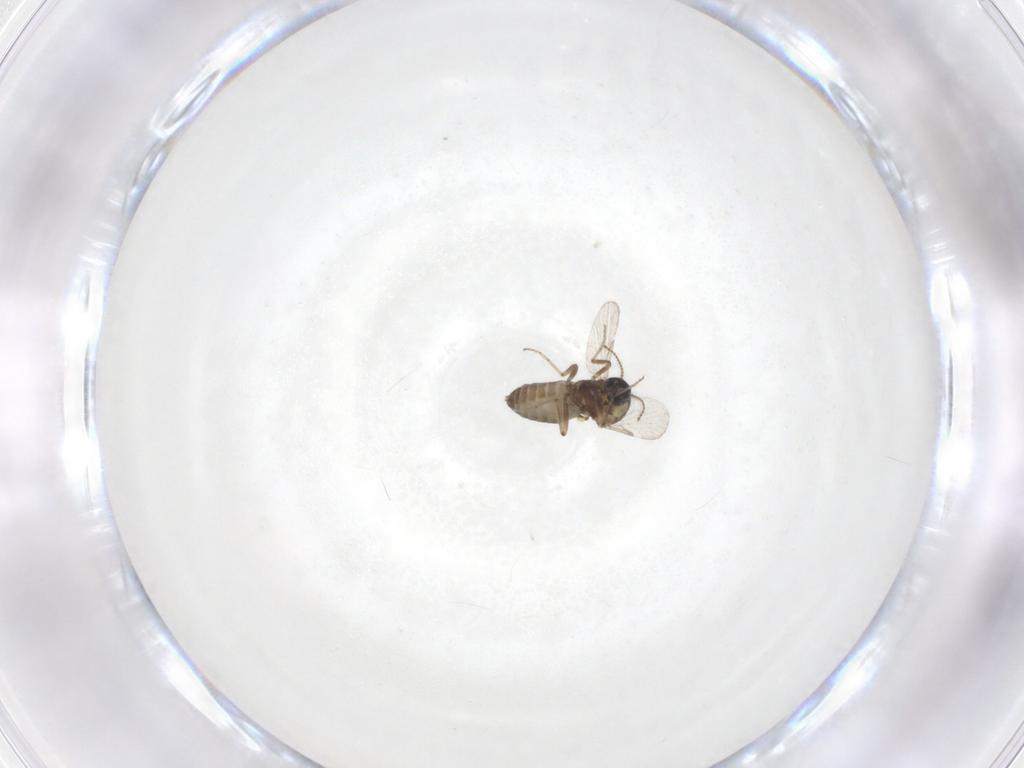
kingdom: Animalia
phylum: Arthropoda
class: Insecta
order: Diptera
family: Ceratopogonidae
